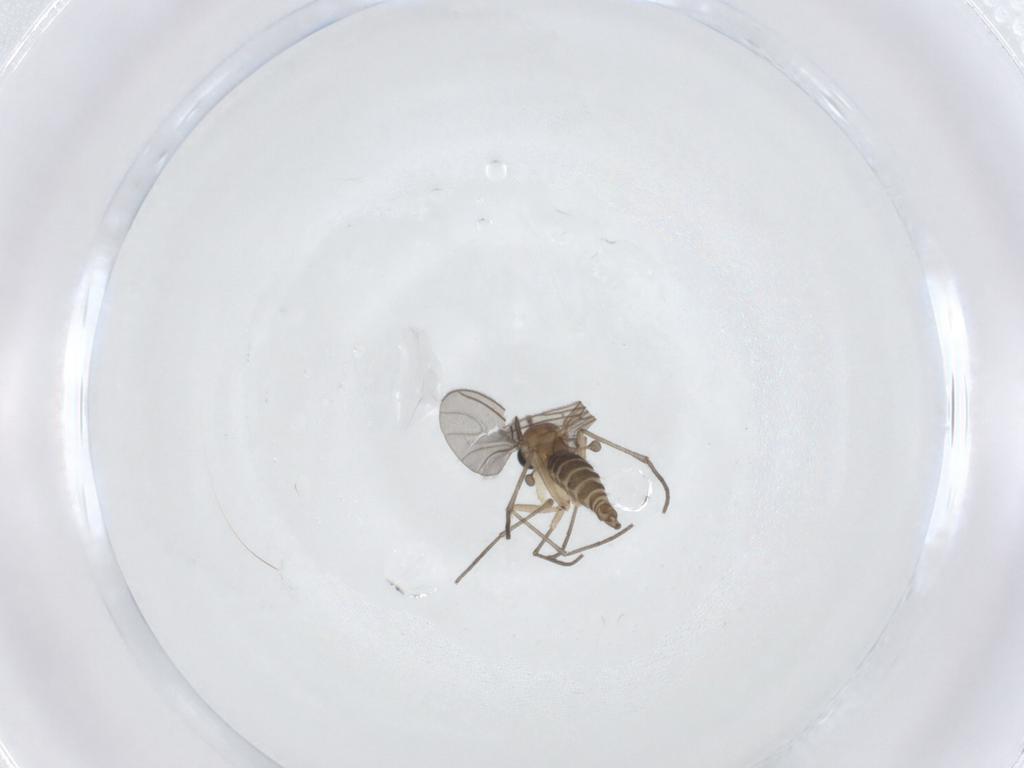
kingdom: Animalia
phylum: Arthropoda
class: Insecta
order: Diptera
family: Sciaridae
